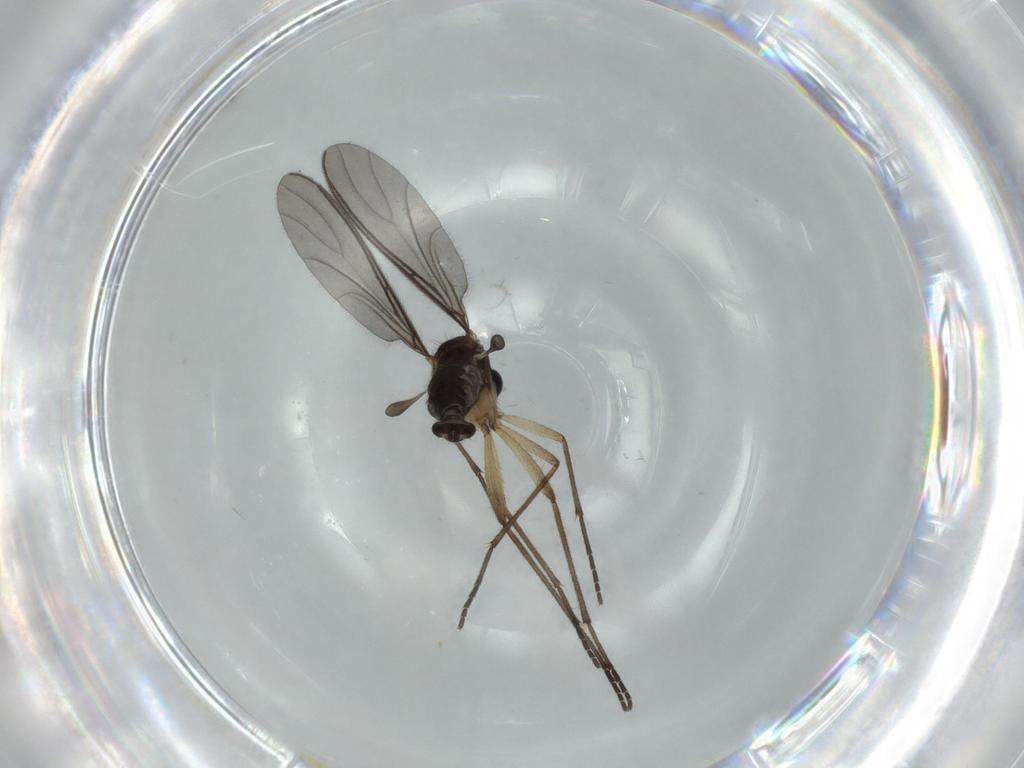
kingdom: Animalia
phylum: Arthropoda
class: Insecta
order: Diptera
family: Sciaridae
